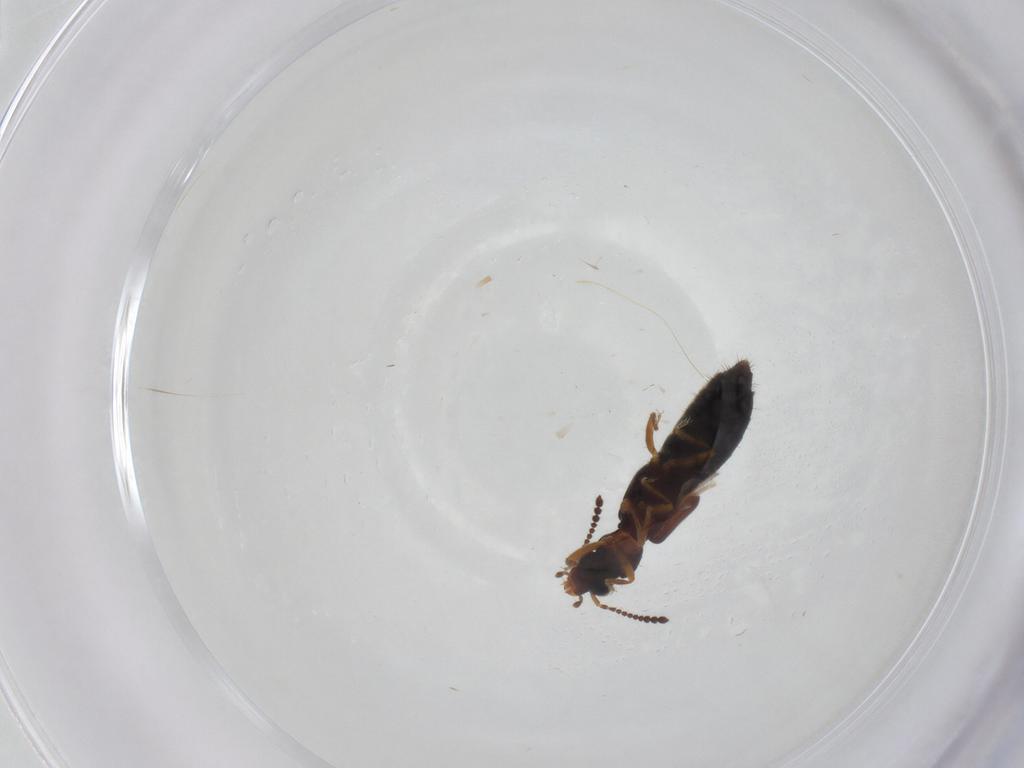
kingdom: Animalia
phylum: Arthropoda
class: Insecta
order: Coleoptera
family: Staphylinidae
